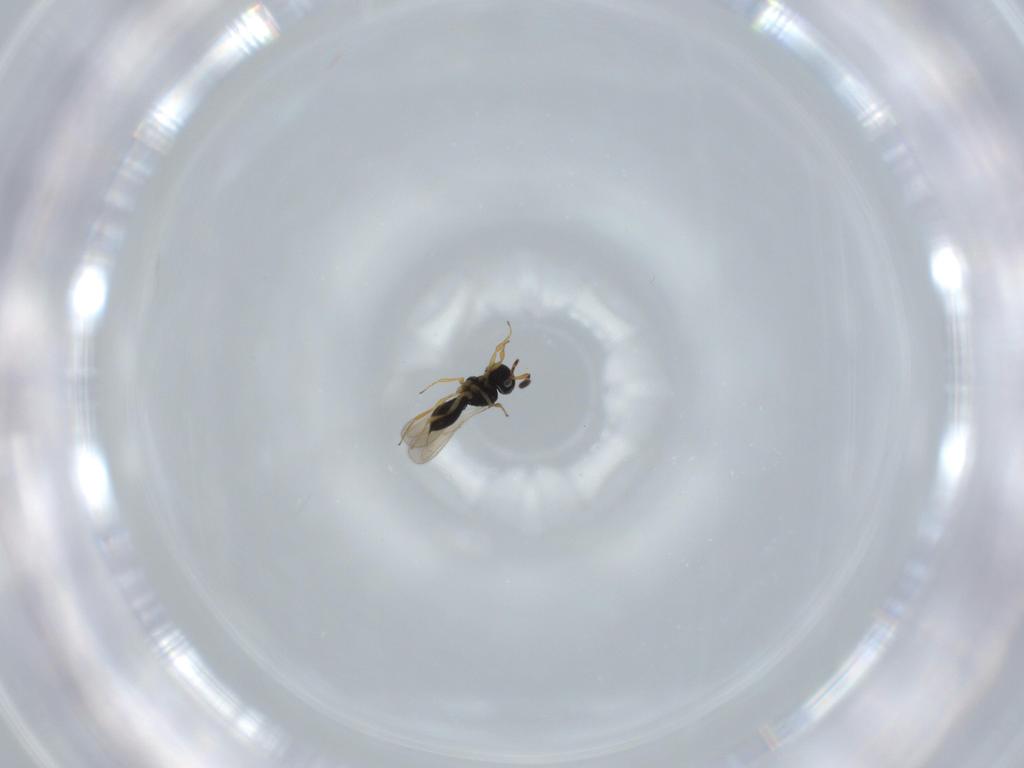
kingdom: Animalia
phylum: Arthropoda
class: Insecta
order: Hymenoptera
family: Scelionidae
